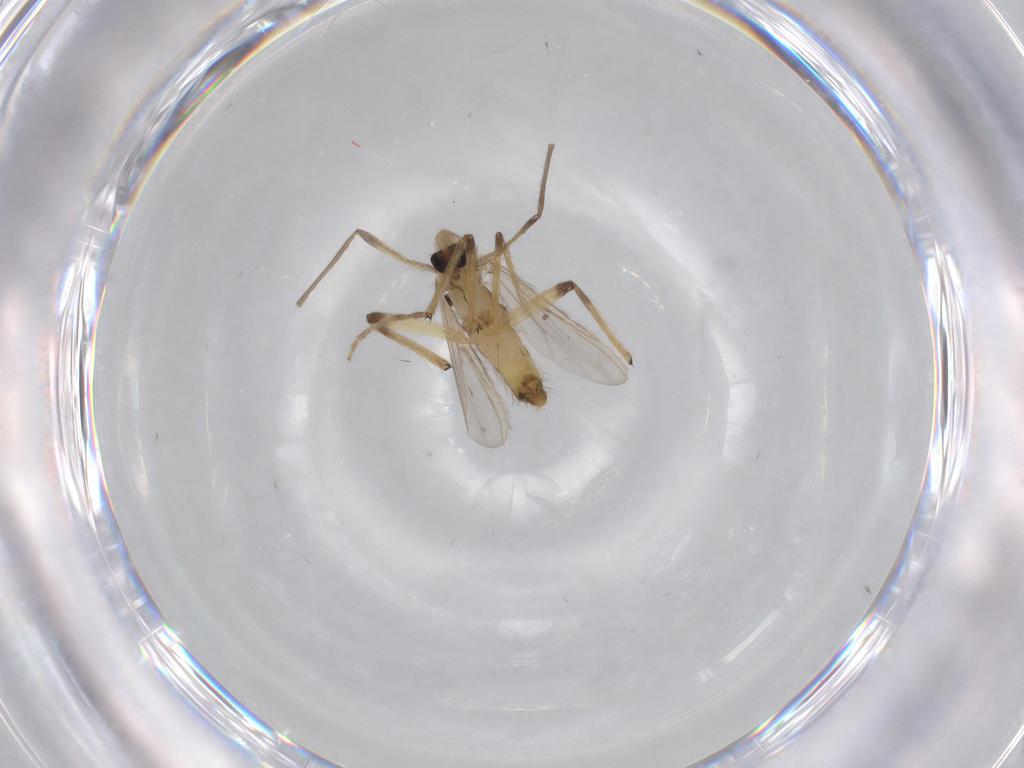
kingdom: Animalia
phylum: Arthropoda
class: Insecta
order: Diptera
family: Chironomidae
